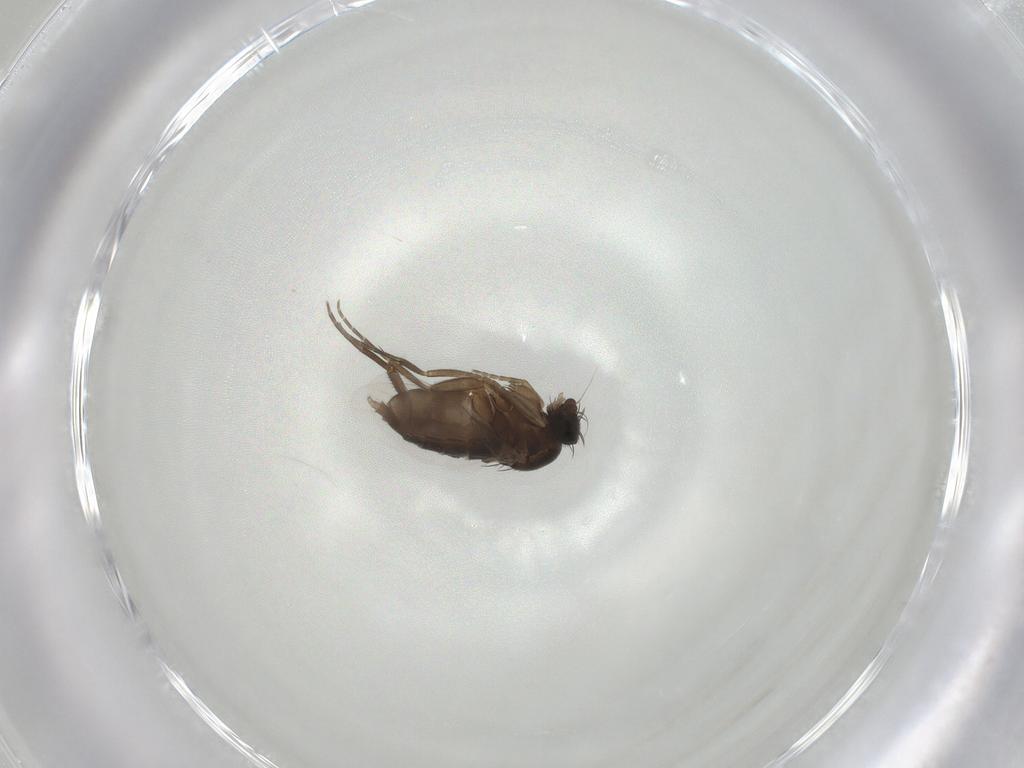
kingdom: Animalia
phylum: Arthropoda
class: Insecta
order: Diptera
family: Phoridae
